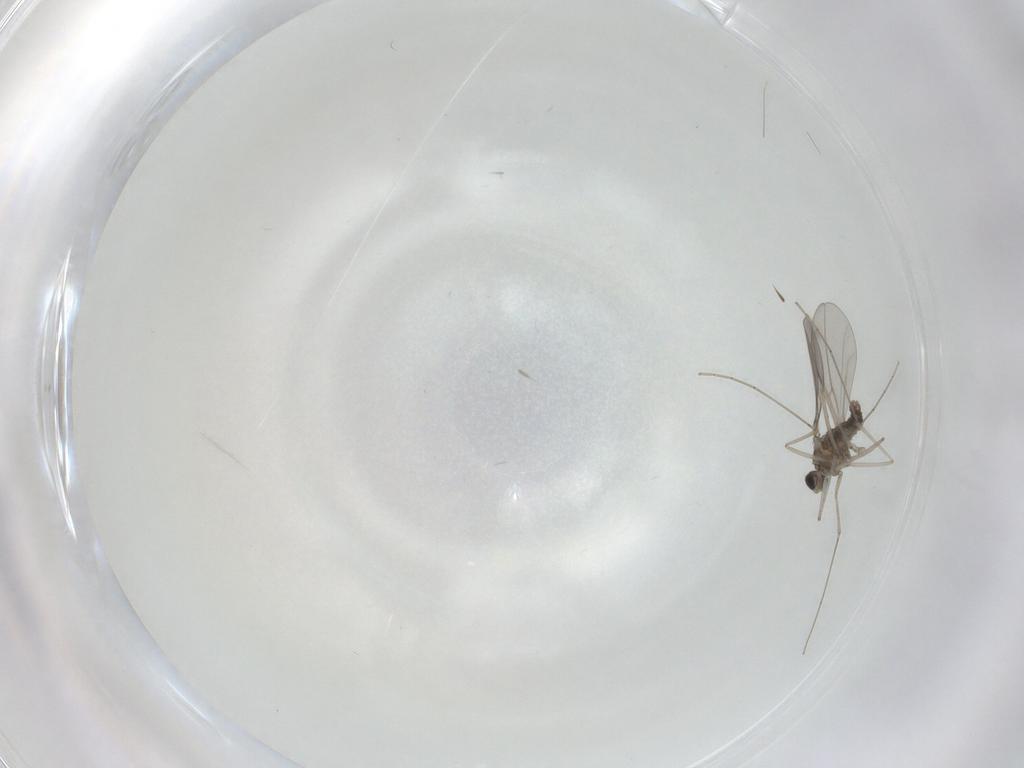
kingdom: Animalia
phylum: Arthropoda
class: Insecta
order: Diptera
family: Cecidomyiidae
